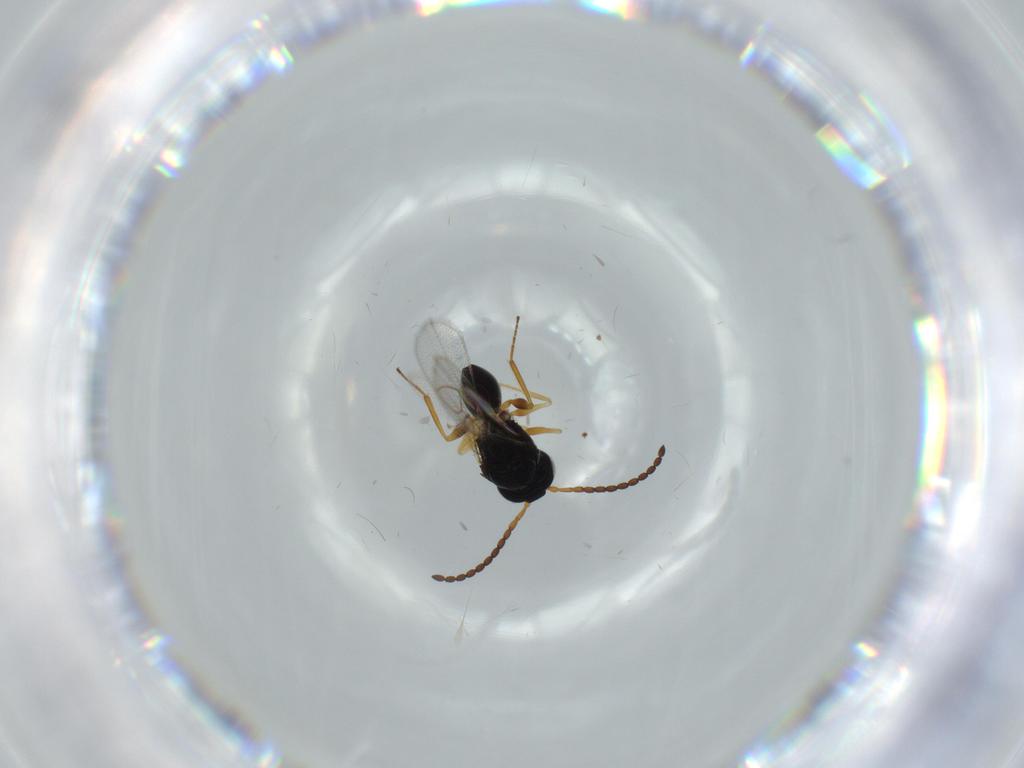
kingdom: Animalia
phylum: Arthropoda
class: Insecta
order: Hymenoptera
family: Figitidae
